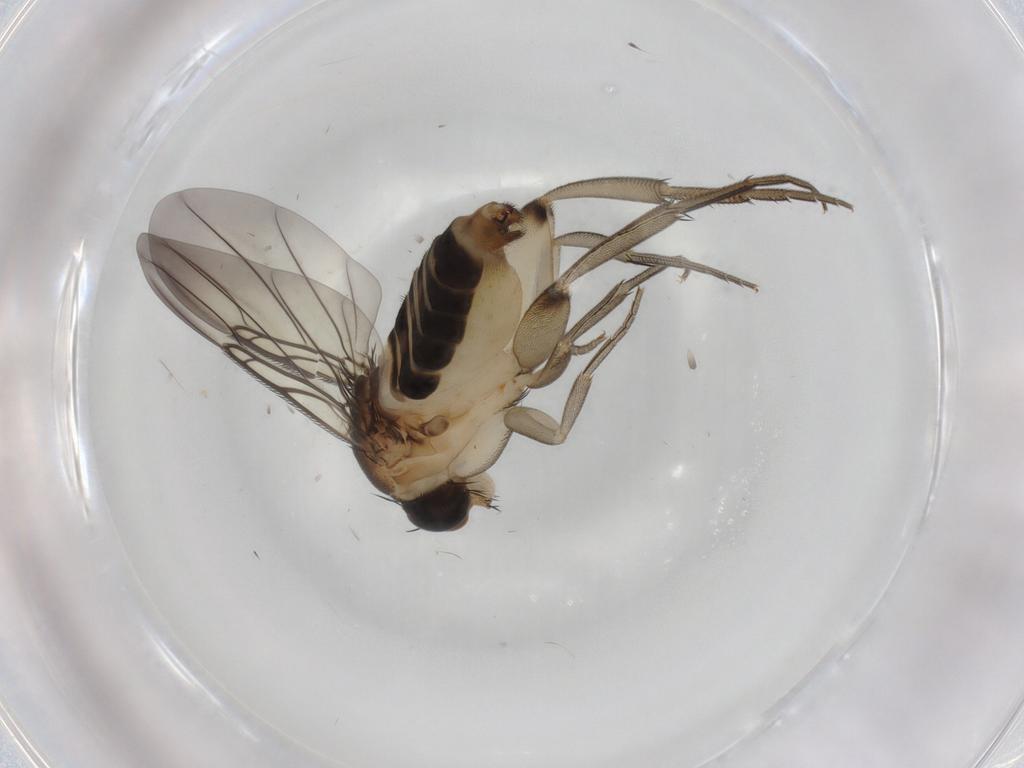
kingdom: Animalia
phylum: Arthropoda
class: Insecta
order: Diptera
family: Phoridae
